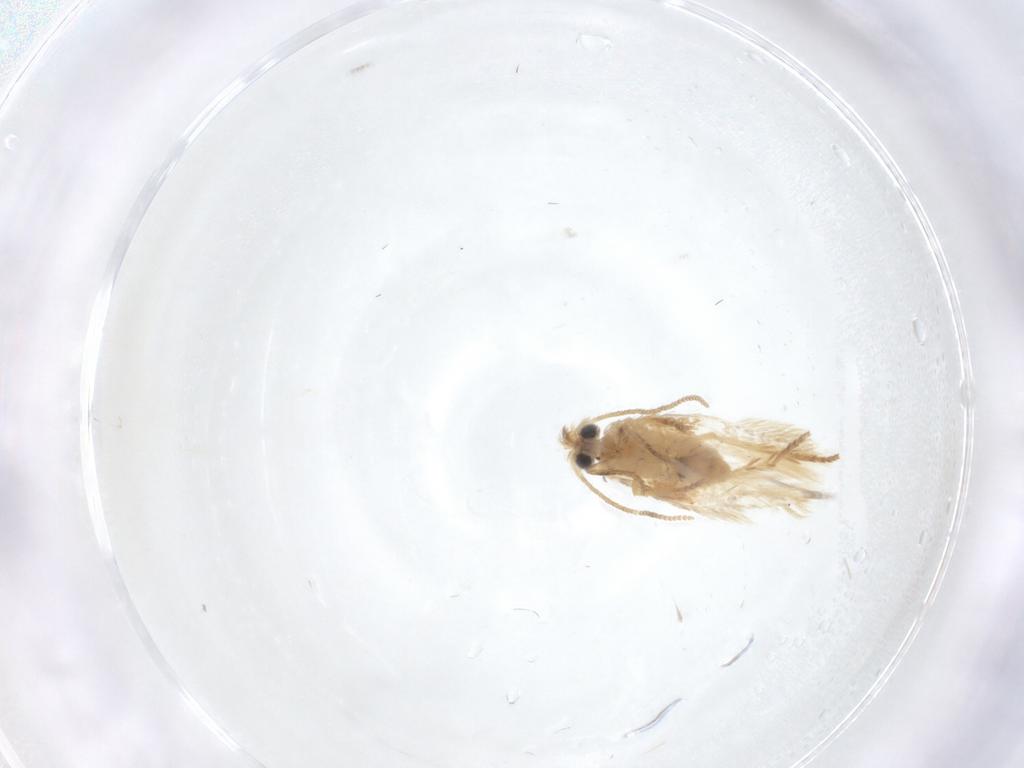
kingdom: Animalia
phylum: Arthropoda
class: Insecta
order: Lepidoptera
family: Nepticulidae
